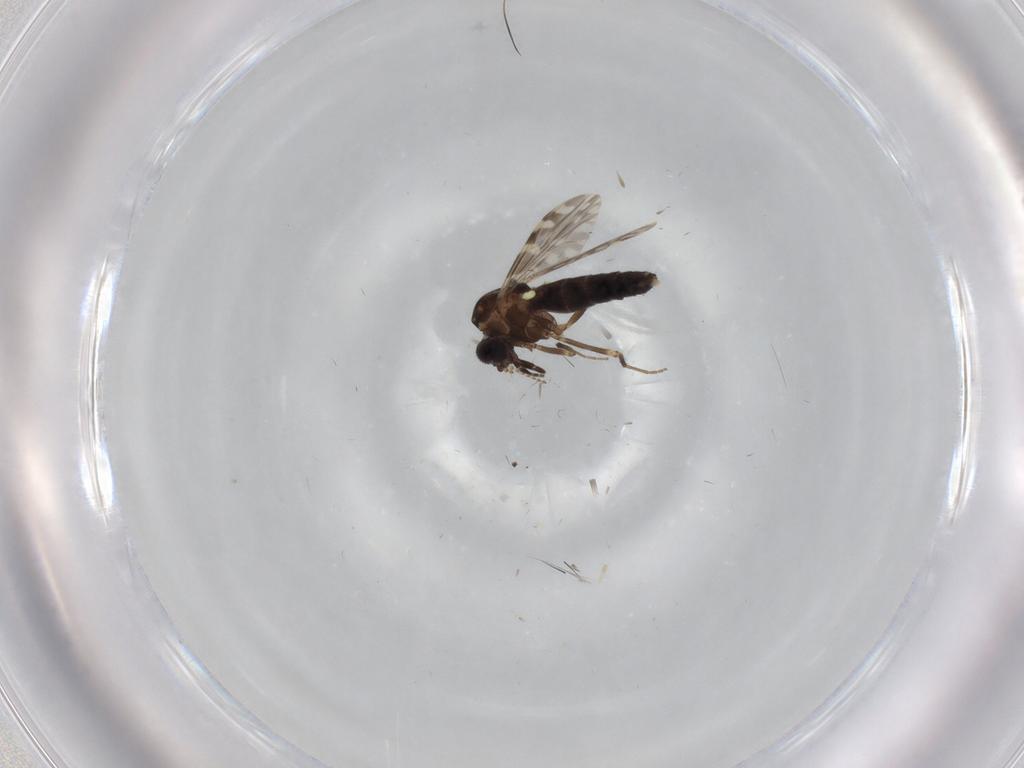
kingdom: Animalia
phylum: Arthropoda
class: Insecta
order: Diptera
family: Ceratopogonidae
